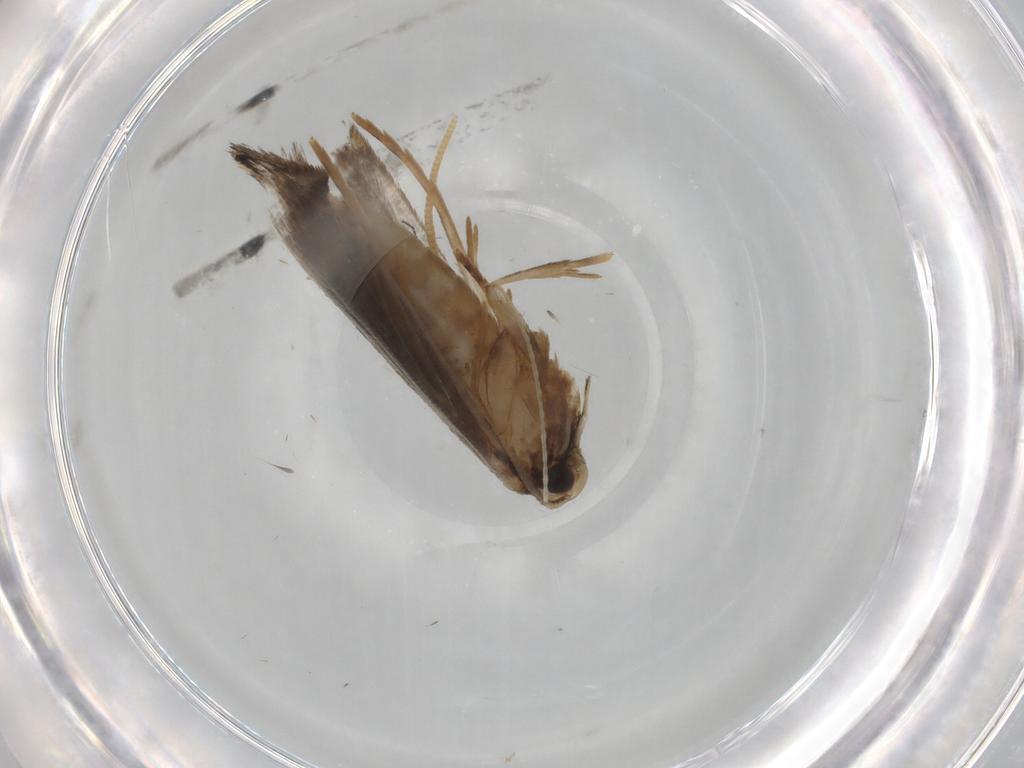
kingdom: Animalia
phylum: Arthropoda
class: Insecta
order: Lepidoptera
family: Tineidae
